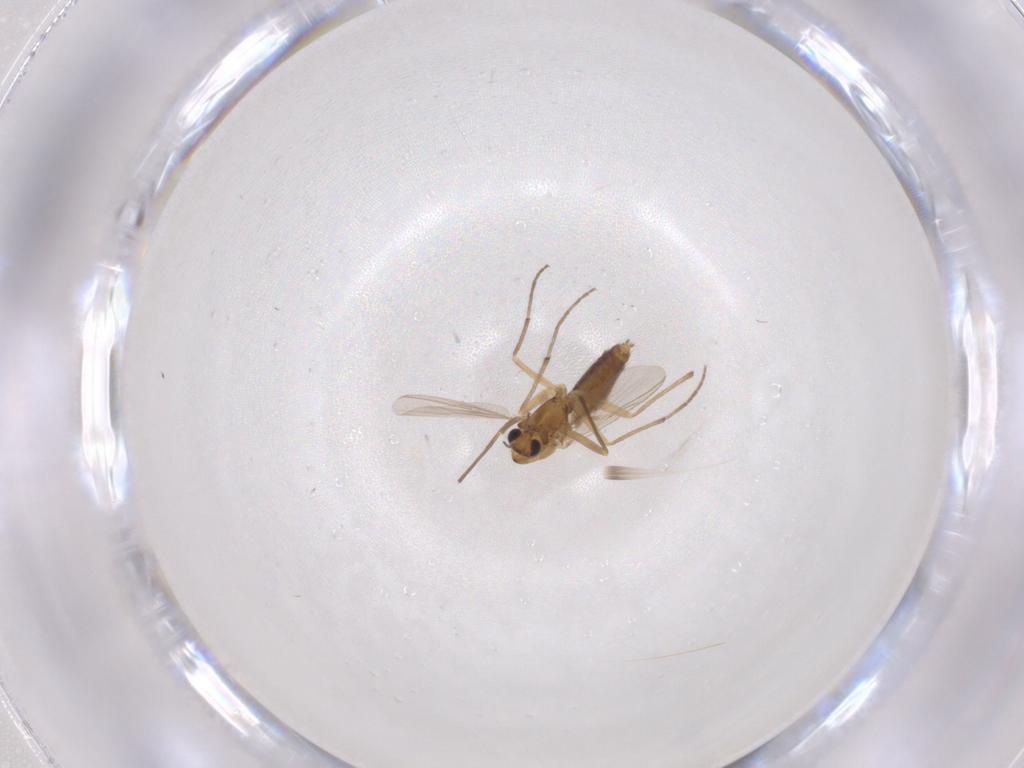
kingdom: Animalia
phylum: Arthropoda
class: Insecta
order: Diptera
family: Chironomidae
